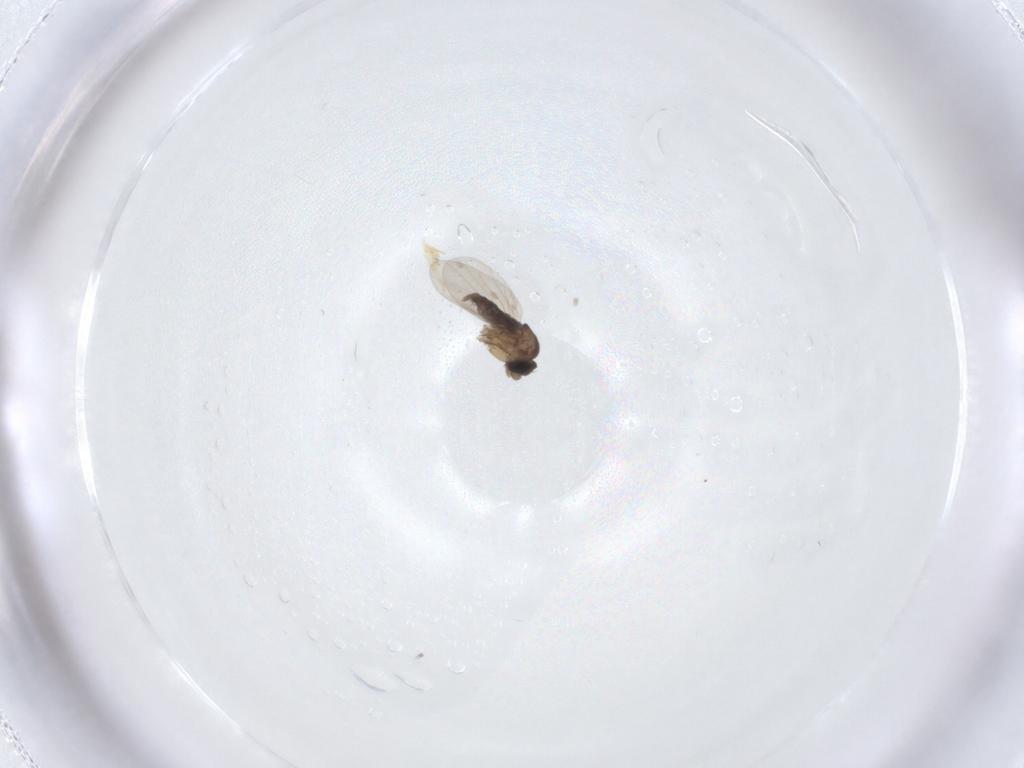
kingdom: Animalia
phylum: Arthropoda
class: Insecta
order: Diptera
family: Phoridae
